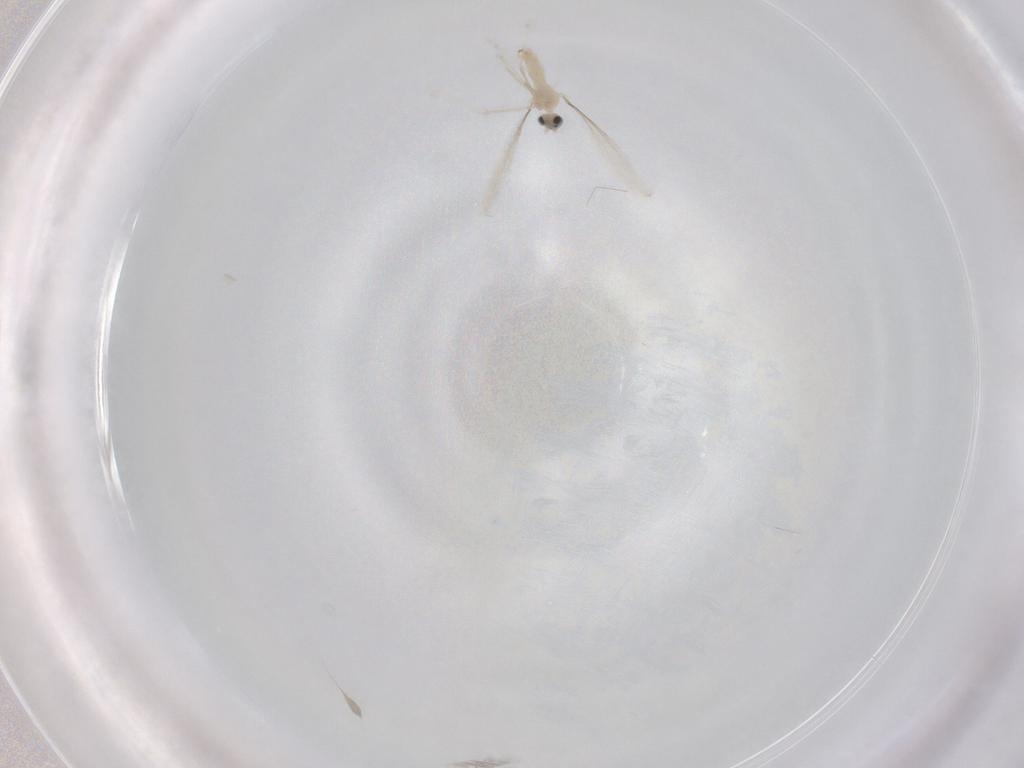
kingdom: Animalia
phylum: Arthropoda
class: Insecta
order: Diptera
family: Cecidomyiidae
